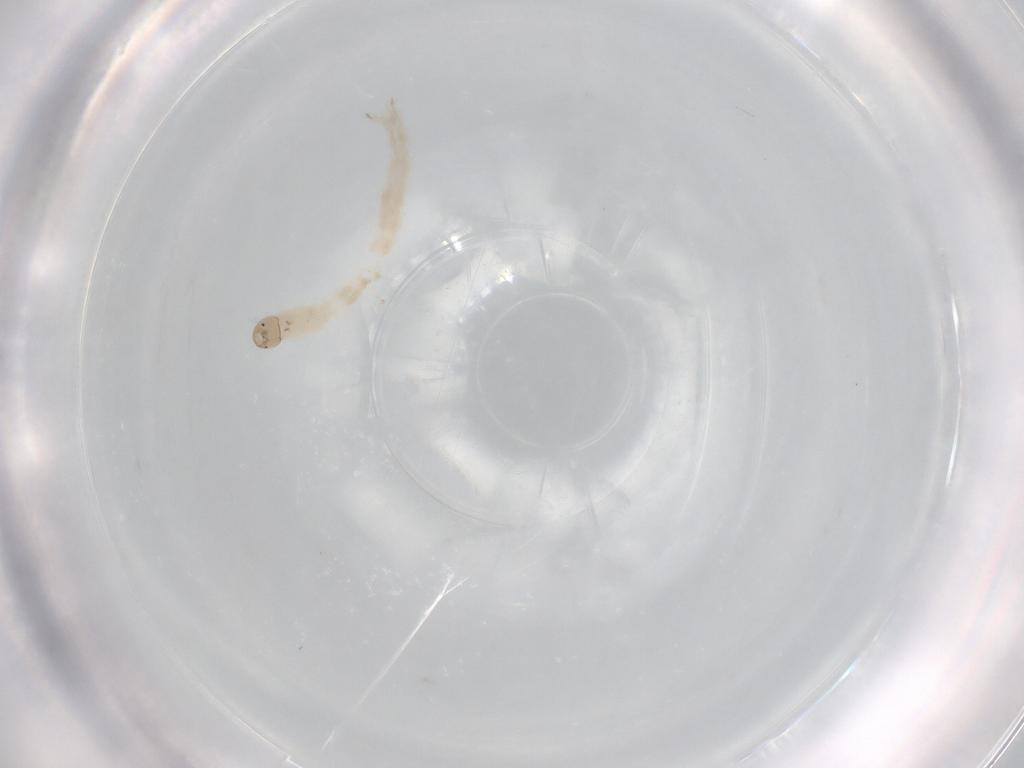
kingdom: Animalia
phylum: Arthropoda
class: Insecta
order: Diptera
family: Chironomidae
